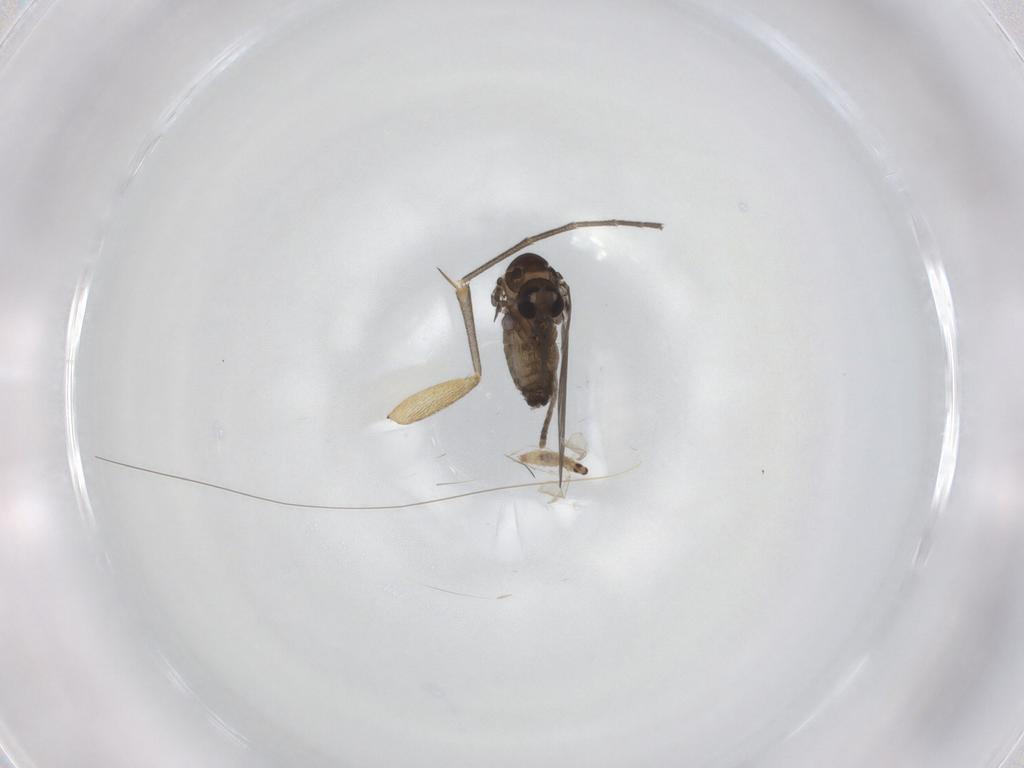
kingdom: Animalia
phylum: Arthropoda
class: Insecta
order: Diptera
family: Psychodidae
